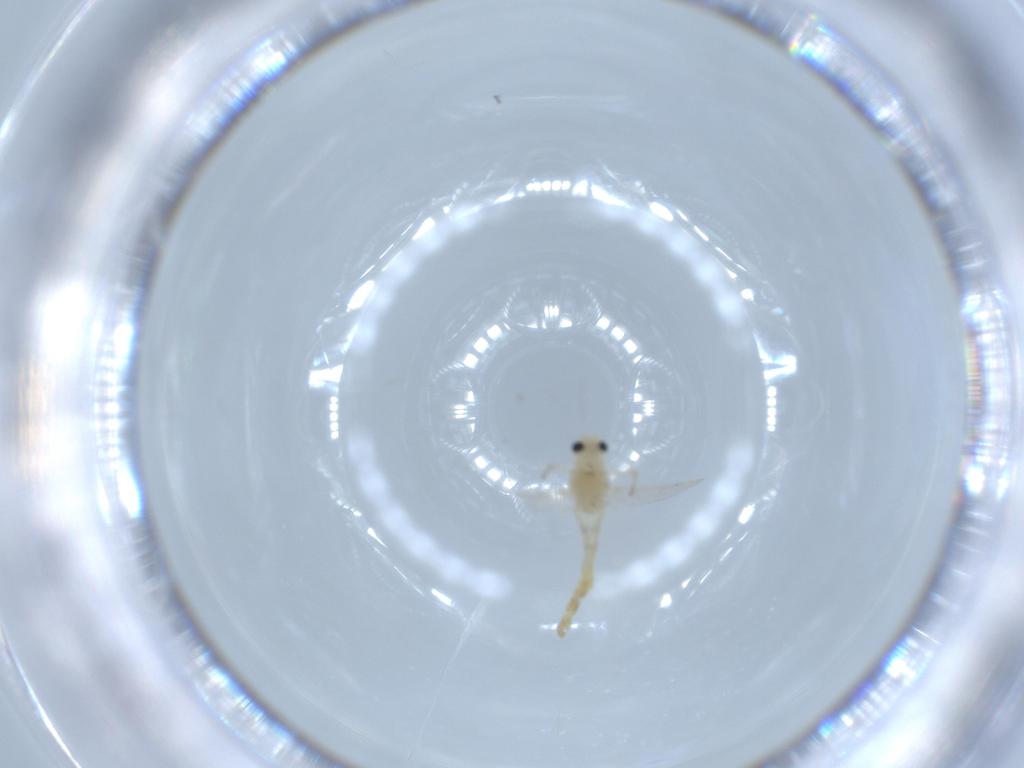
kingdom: Animalia
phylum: Arthropoda
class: Insecta
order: Diptera
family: Chironomidae
